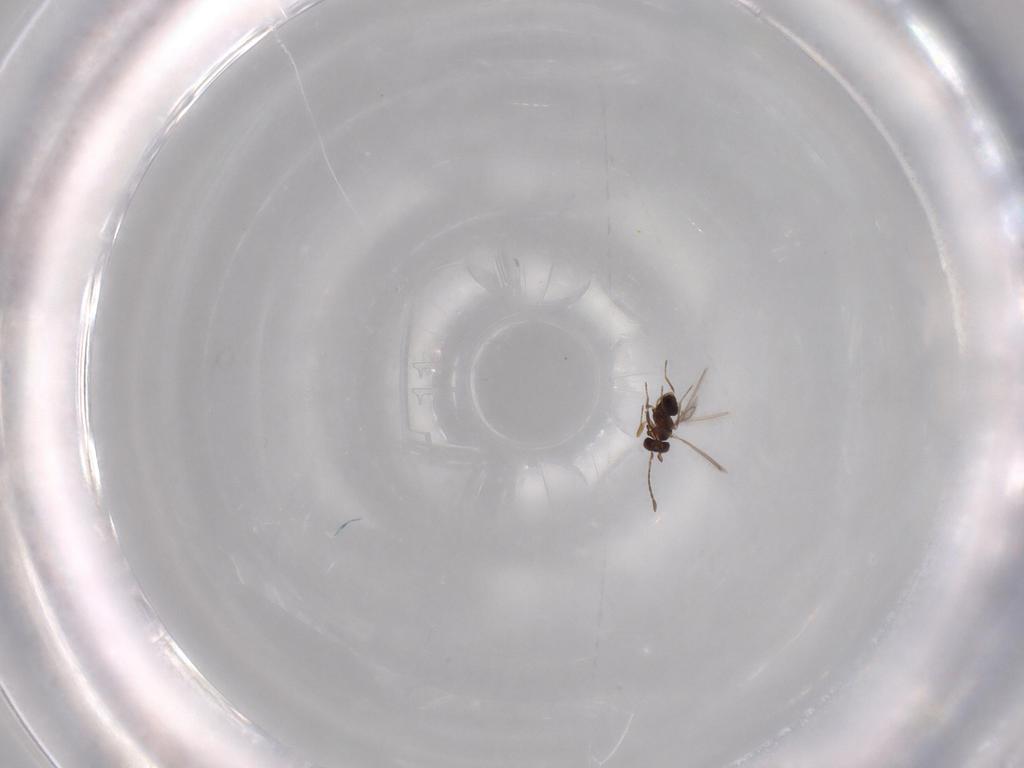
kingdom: Animalia
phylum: Arthropoda
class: Insecta
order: Hymenoptera
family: Mymaridae
